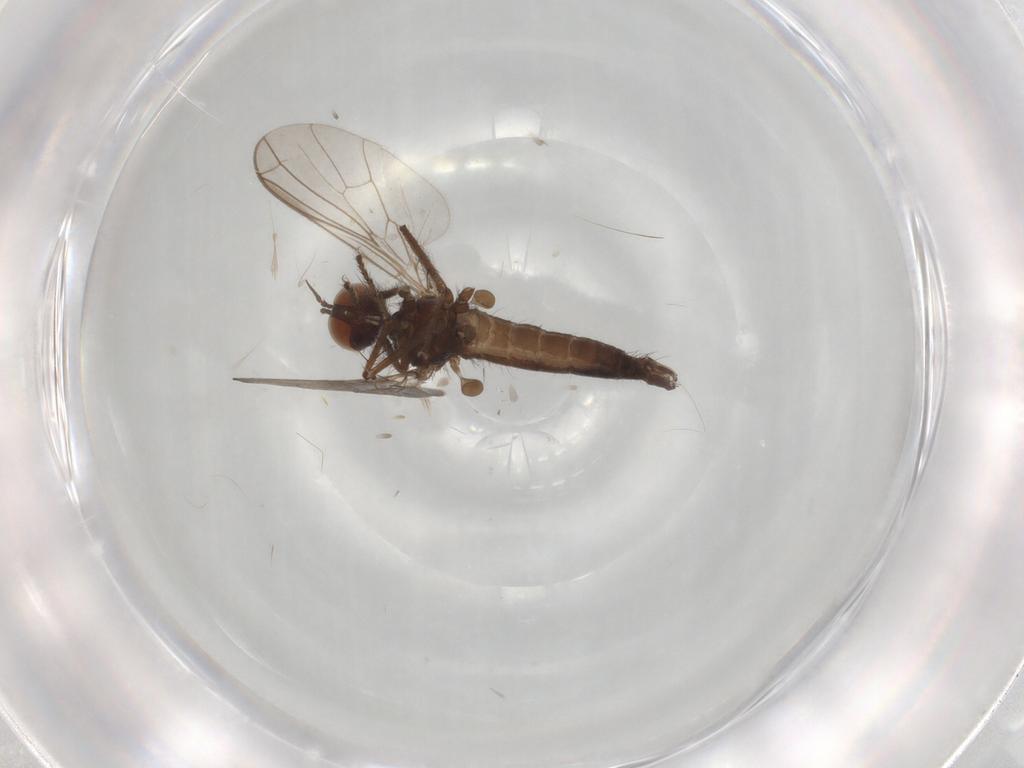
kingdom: Animalia
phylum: Arthropoda
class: Insecta
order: Diptera
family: Empididae
